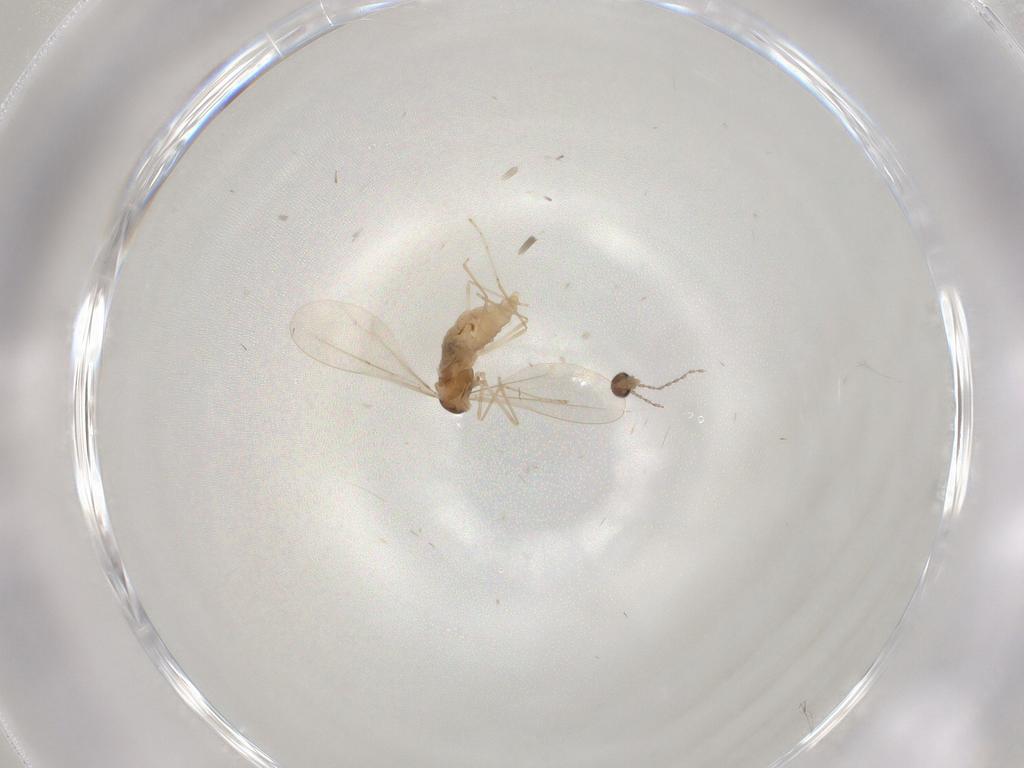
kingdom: Animalia
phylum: Arthropoda
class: Insecta
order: Diptera
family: Cecidomyiidae
